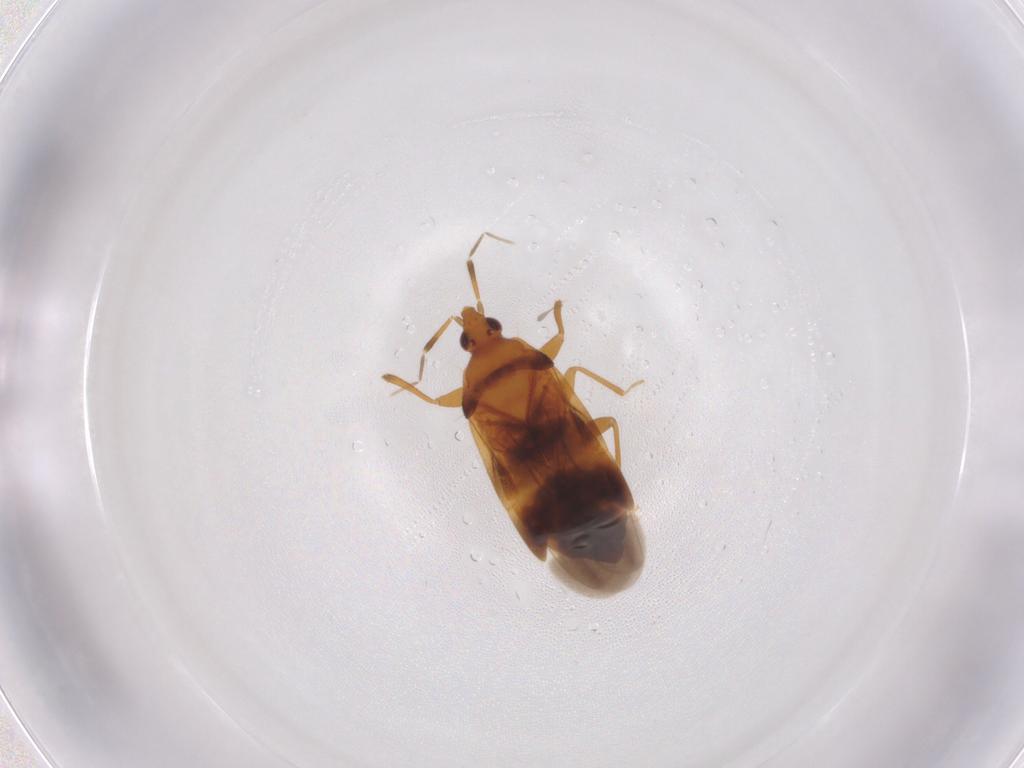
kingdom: Animalia
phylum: Arthropoda
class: Insecta
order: Hemiptera
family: Anthocoridae
